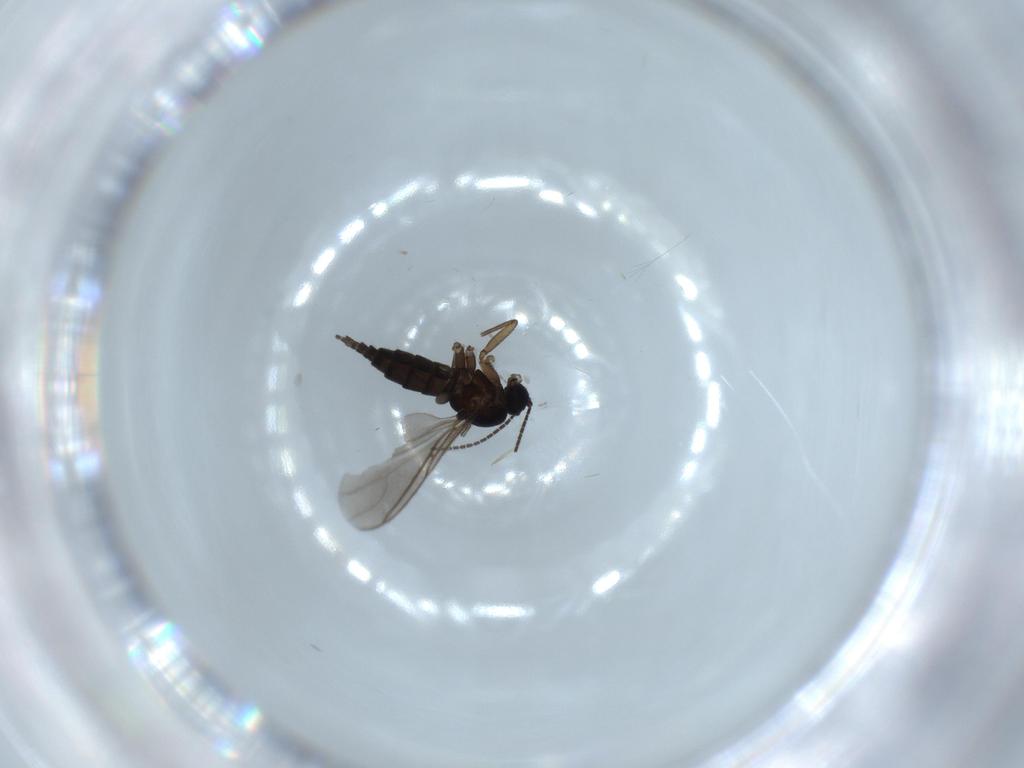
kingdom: Animalia
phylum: Arthropoda
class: Insecta
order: Diptera
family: Sciaridae
